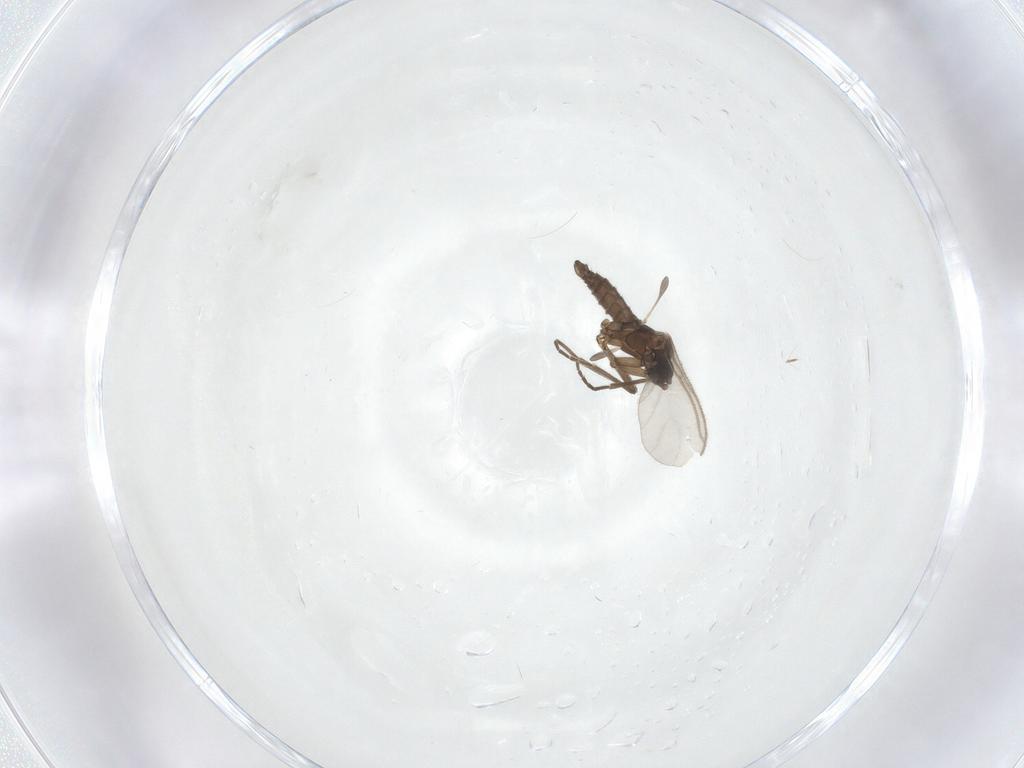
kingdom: Animalia
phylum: Arthropoda
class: Insecta
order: Diptera
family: Sciaridae
